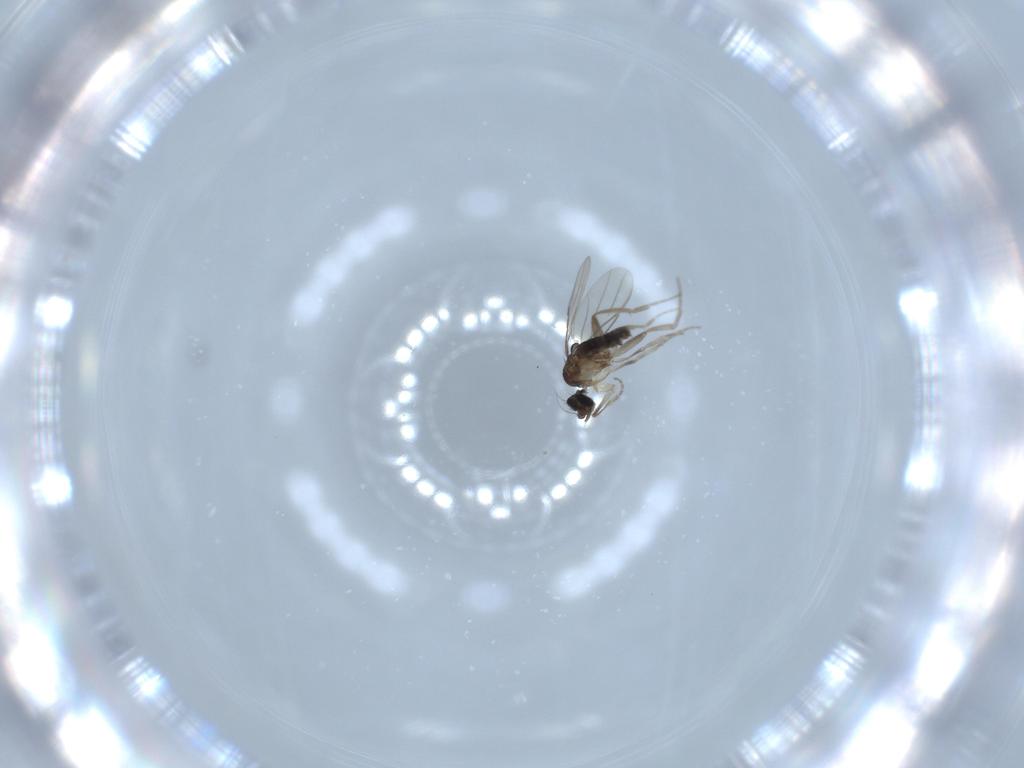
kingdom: Animalia
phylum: Arthropoda
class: Insecta
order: Diptera
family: Phoridae
